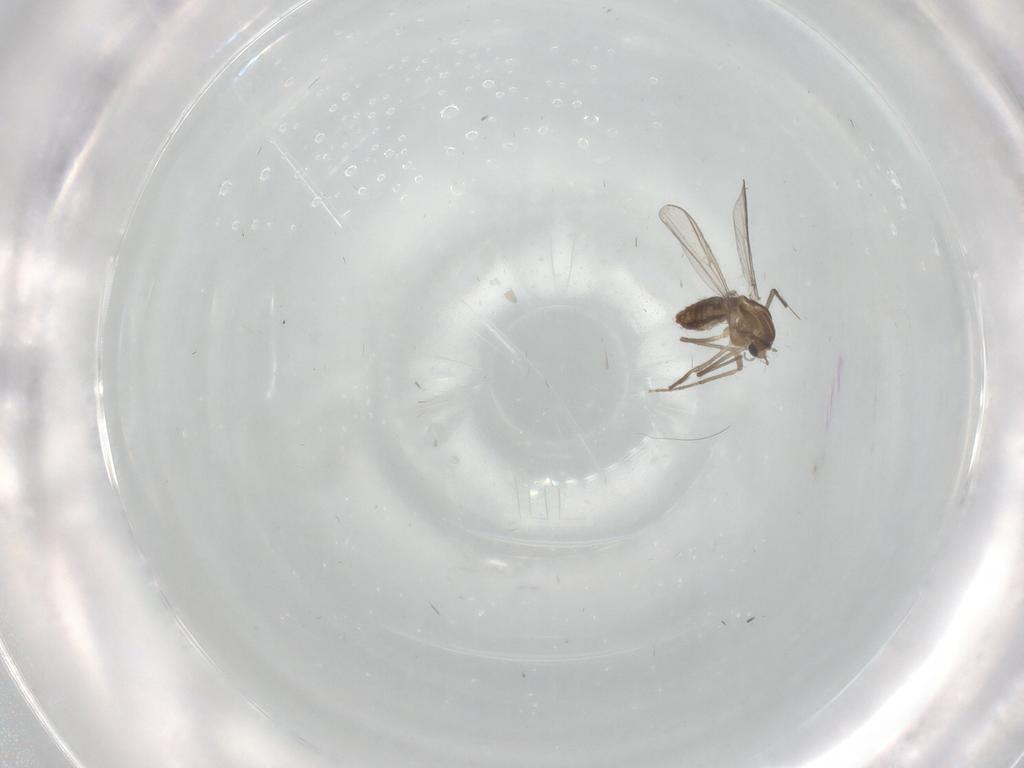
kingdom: Animalia
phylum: Arthropoda
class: Insecta
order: Diptera
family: Chironomidae
